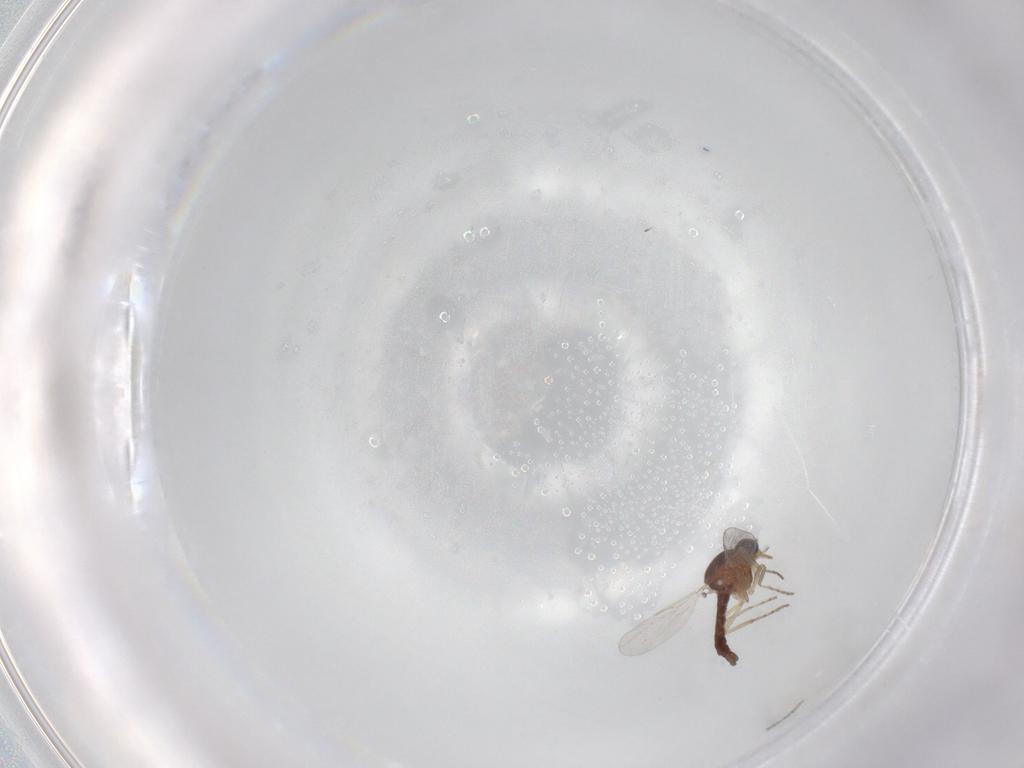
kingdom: Animalia
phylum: Arthropoda
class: Insecta
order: Diptera
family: Ceratopogonidae
